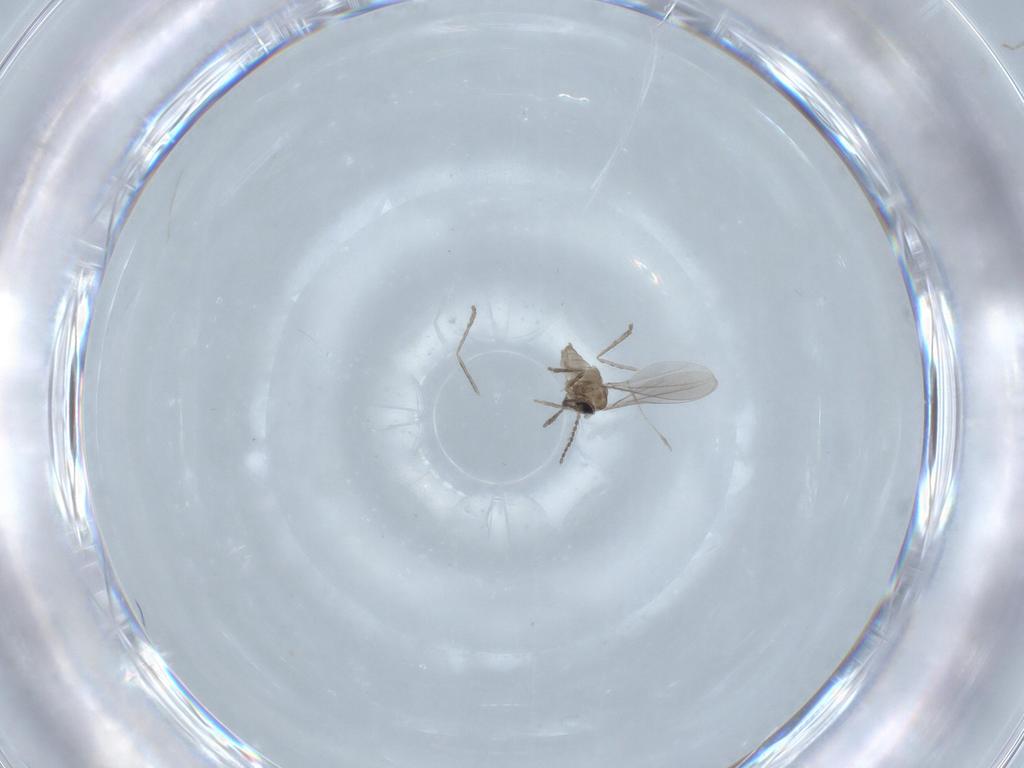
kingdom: Animalia
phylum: Arthropoda
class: Insecta
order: Diptera
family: Cecidomyiidae
